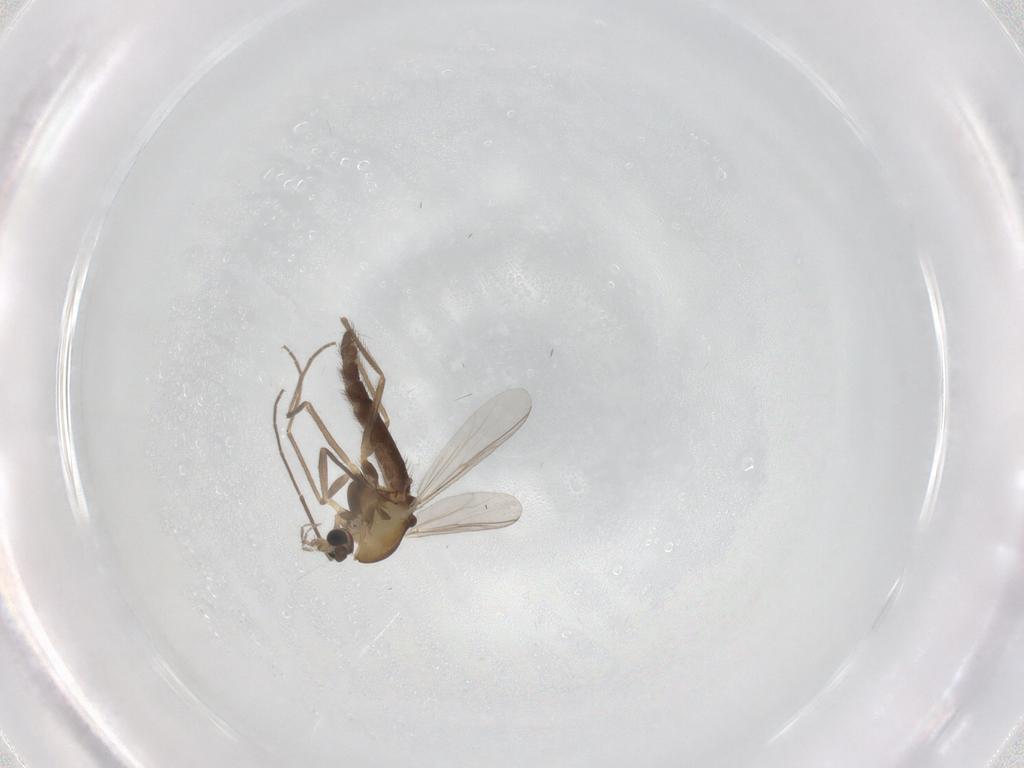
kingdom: Animalia
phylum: Arthropoda
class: Insecta
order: Diptera
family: Chironomidae
